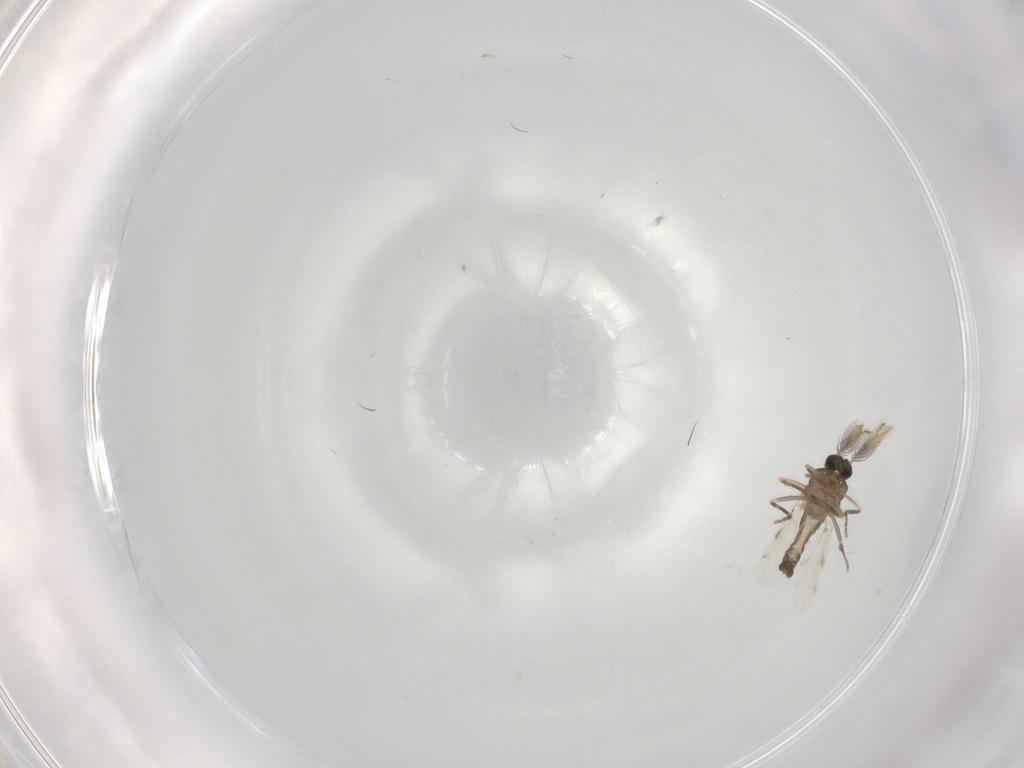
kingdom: Animalia
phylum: Arthropoda
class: Insecta
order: Diptera
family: Ceratopogonidae
